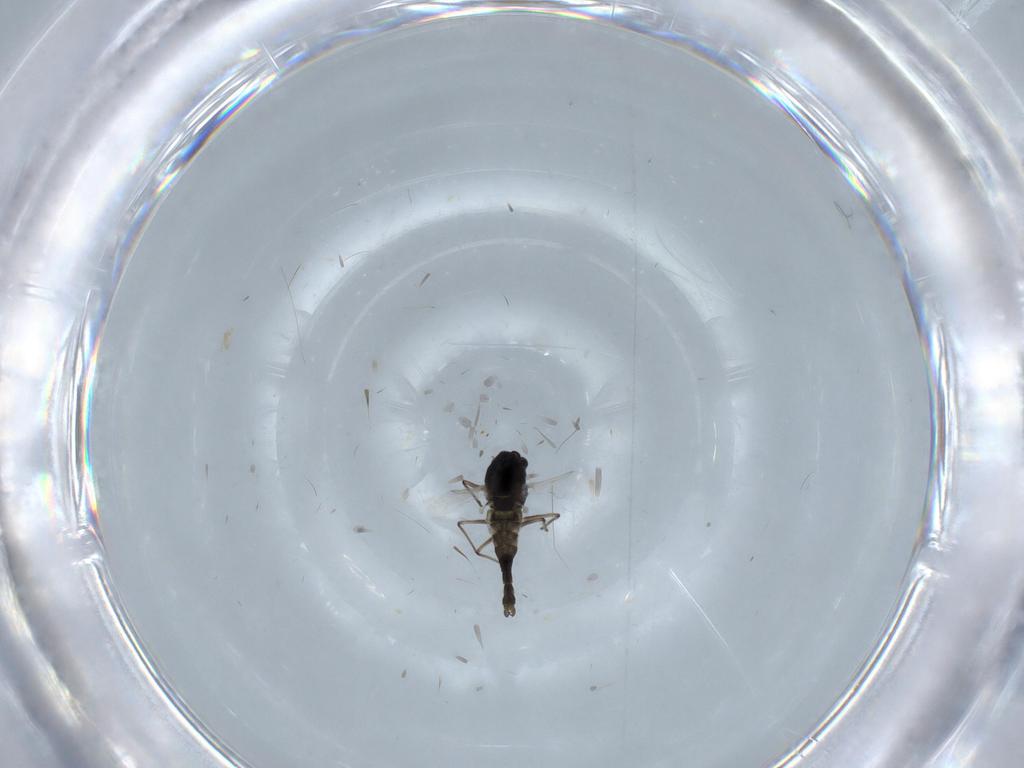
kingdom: Animalia
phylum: Arthropoda
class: Insecta
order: Diptera
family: Chironomidae
